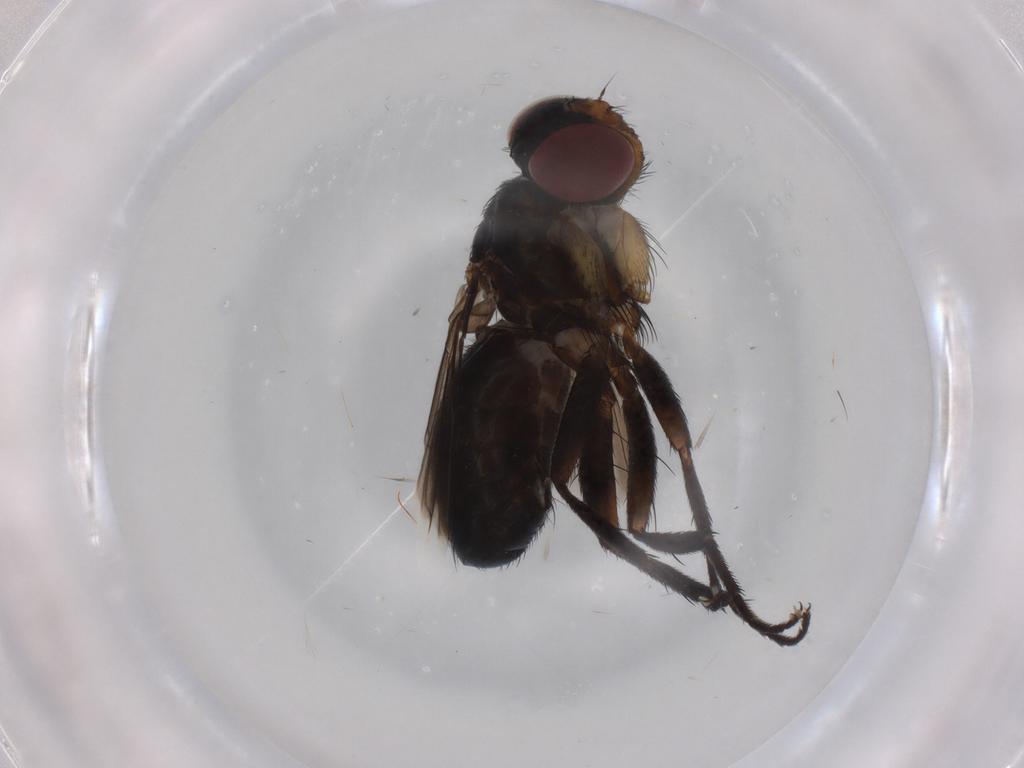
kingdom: Animalia
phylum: Arthropoda
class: Insecta
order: Diptera
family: Tachinidae
